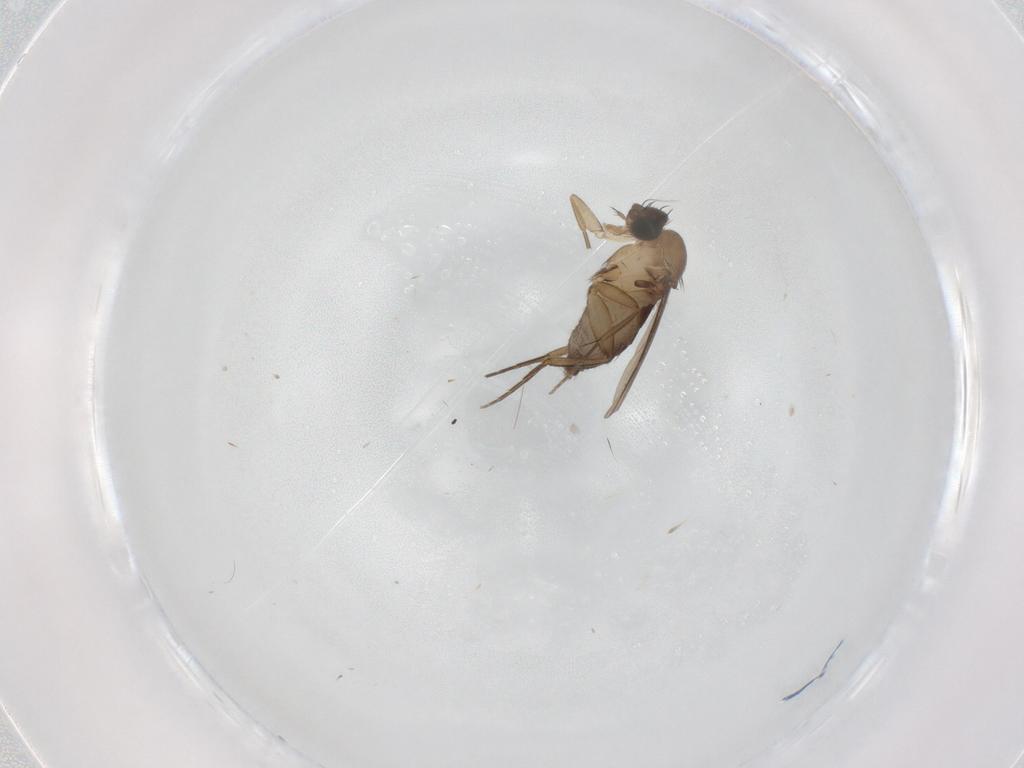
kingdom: Animalia
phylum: Arthropoda
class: Insecta
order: Diptera
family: Phoridae
